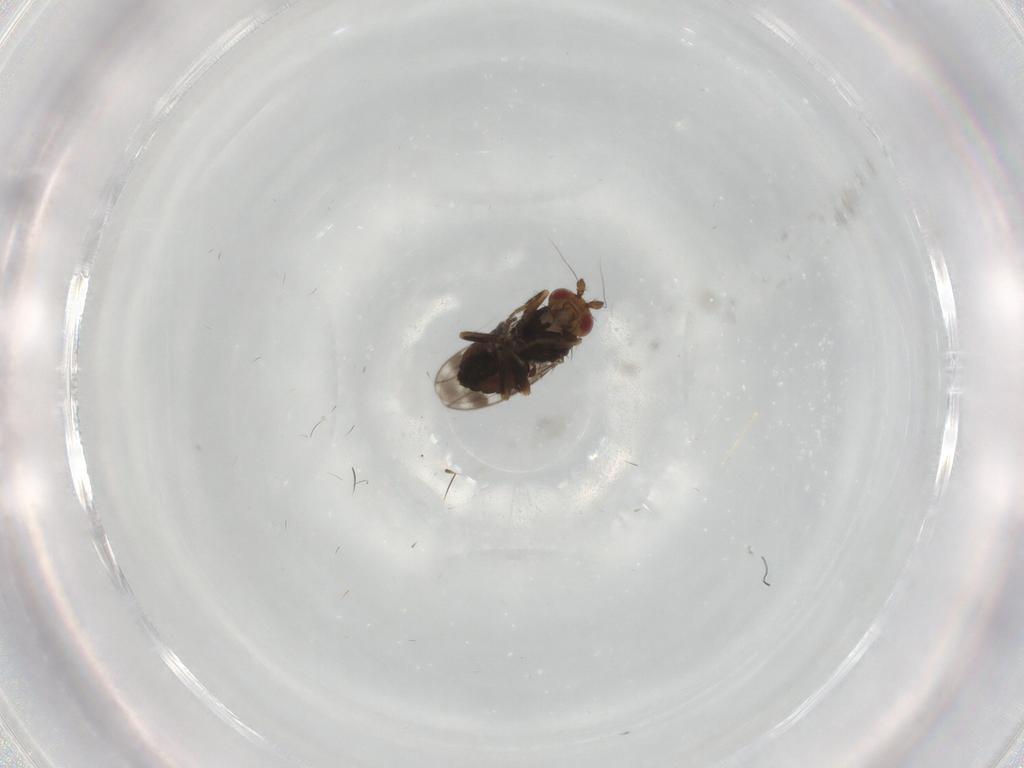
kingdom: Animalia
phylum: Arthropoda
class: Insecta
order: Diptera
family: Sphaeroceridae
